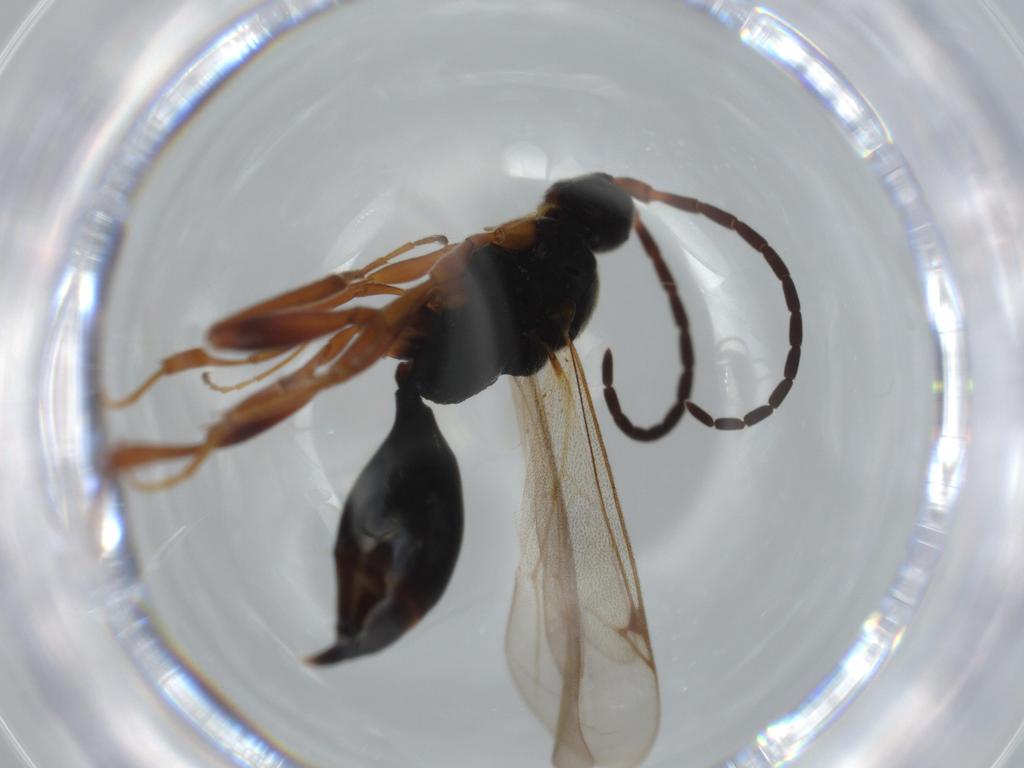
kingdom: Animalia
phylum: Arthropoda
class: Insecta
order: Hymenoptera
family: Proctotrupidae
